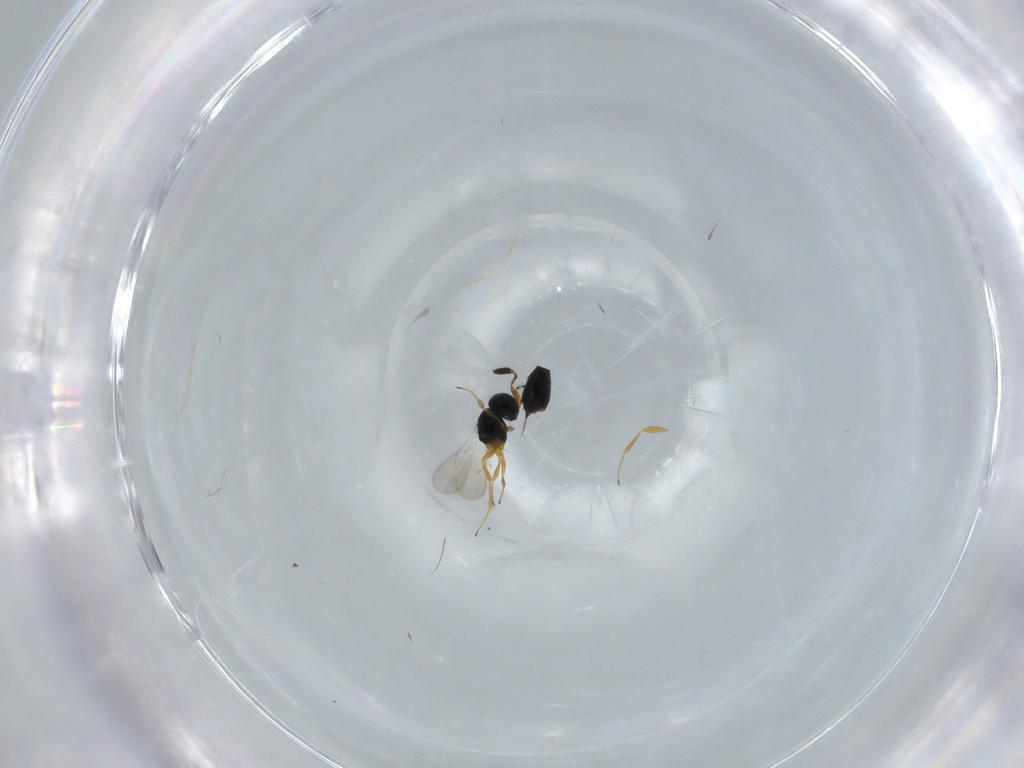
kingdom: Animalia
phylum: Arthropoda
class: Insecta
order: Hymenoptera
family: Scelionidae
